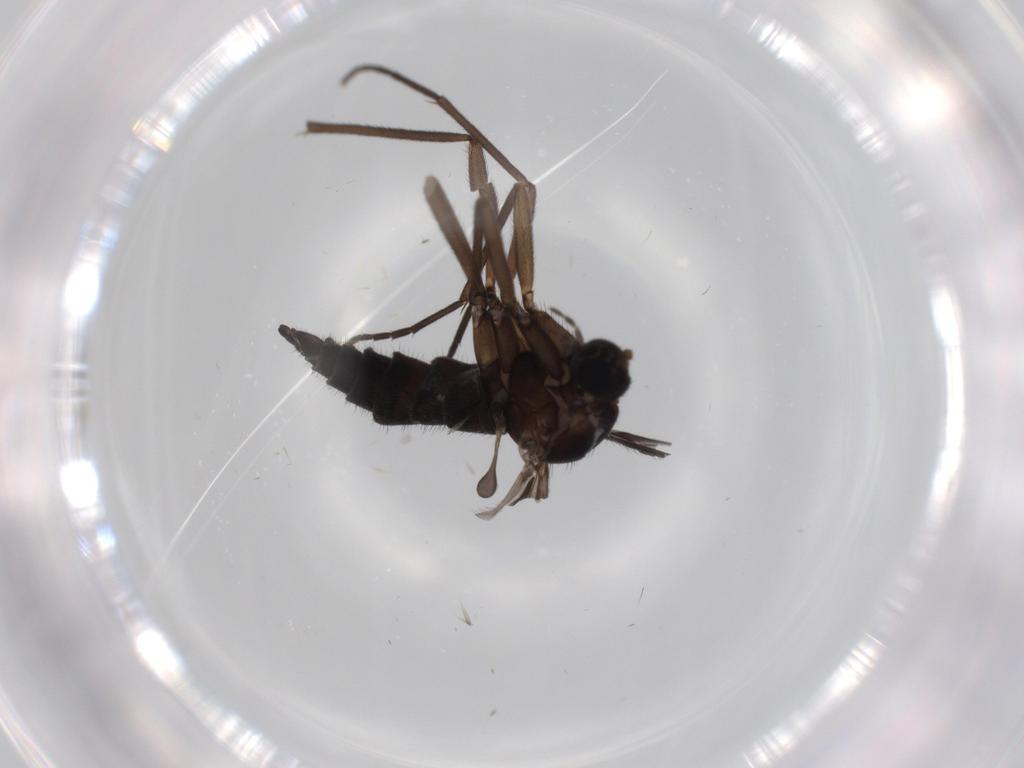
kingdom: Animalia
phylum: Arthropoda
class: Insecta
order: Diptera
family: Sciaridae
